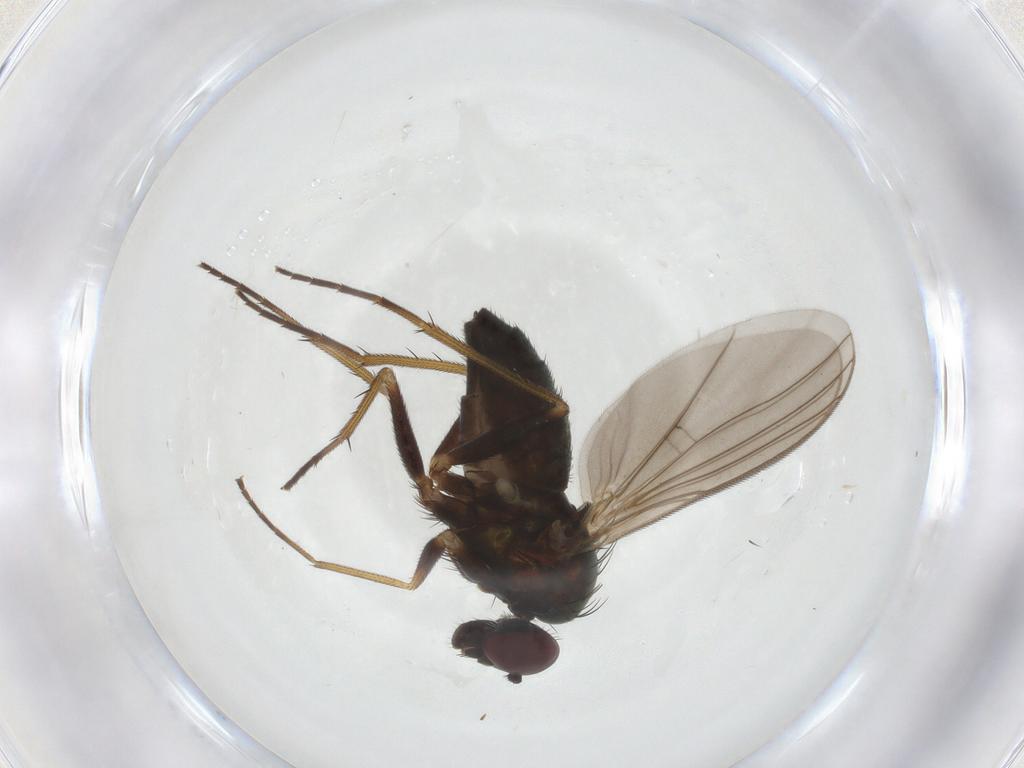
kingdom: Animalia
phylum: Arthropoda
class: Insecta
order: Diptera
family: Dolichopodidae
